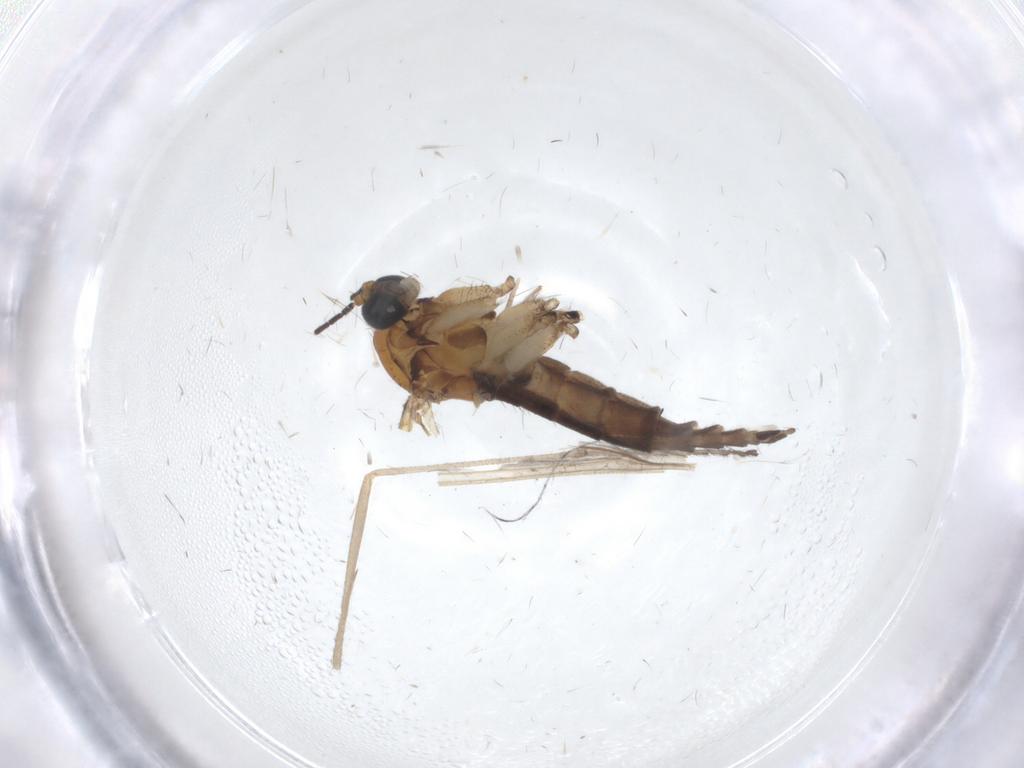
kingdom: Animalia
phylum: Arthropoda
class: Insecta
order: Diptera
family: Sciaridae
